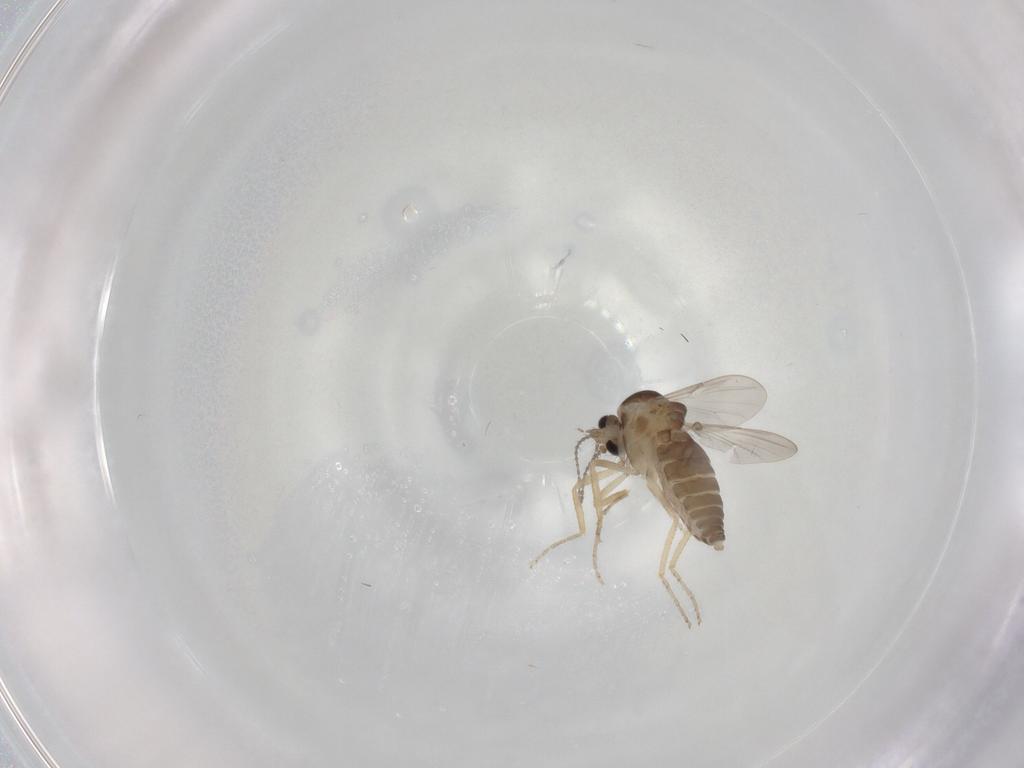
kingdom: Animalia
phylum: Arthropoda
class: Insecta
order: Diptera
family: Ceratopogonidae
